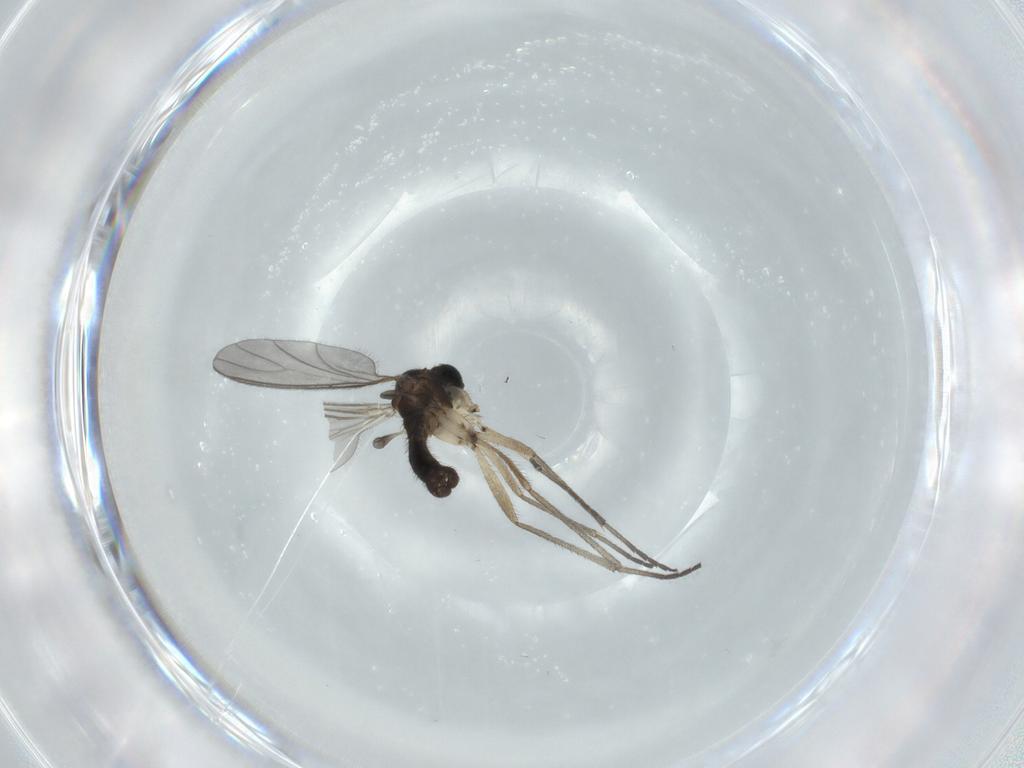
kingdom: Animalia
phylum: Arthropoda
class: Insecta
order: Diptera
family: Sciaridae
